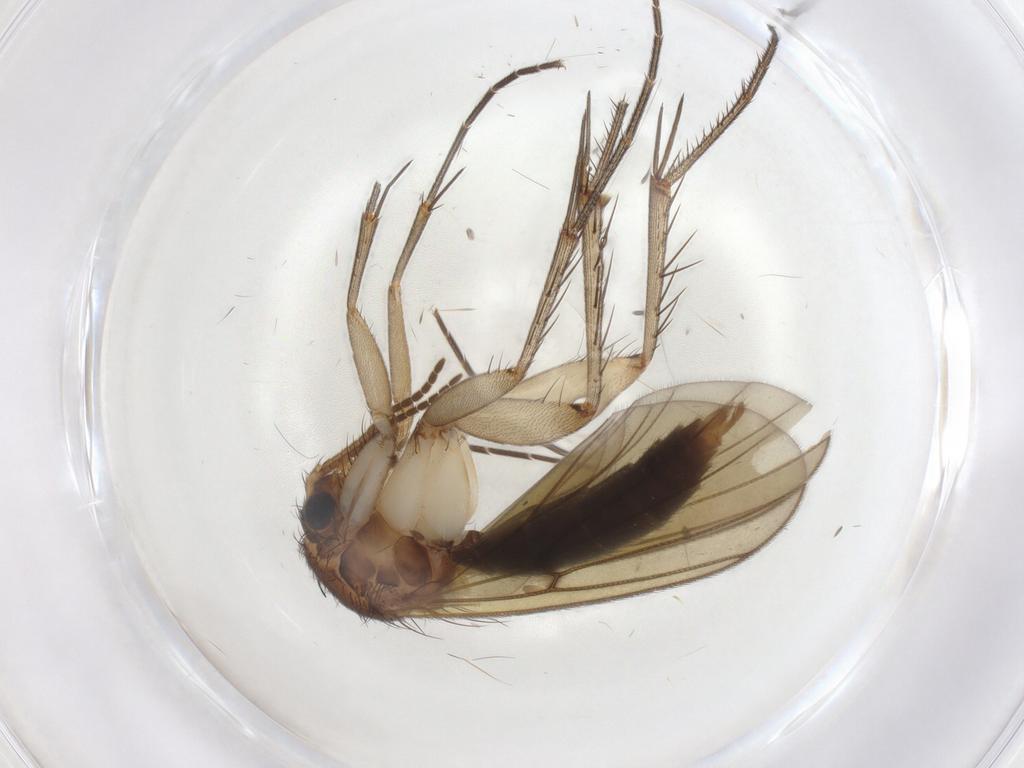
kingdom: Animalia
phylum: Arthropoda
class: Insecta
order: Diptera
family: Mycetophilidae
